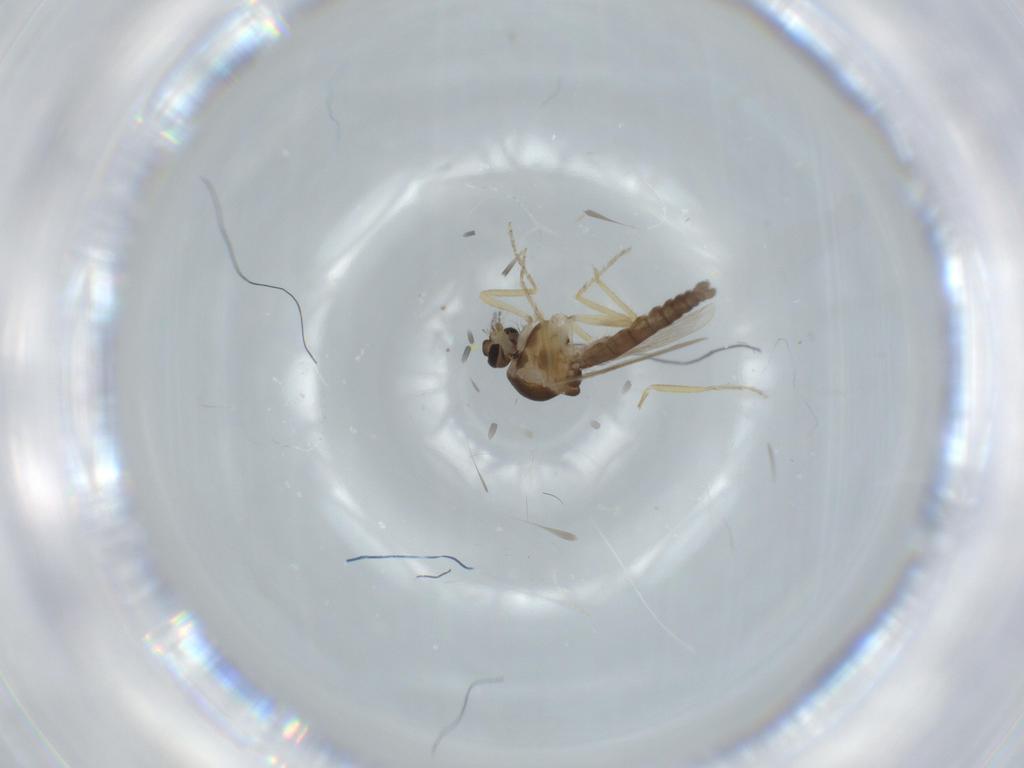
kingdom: Animalia
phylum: Arthropoda
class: Insecta
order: Diptera
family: Ceratopogonidae
